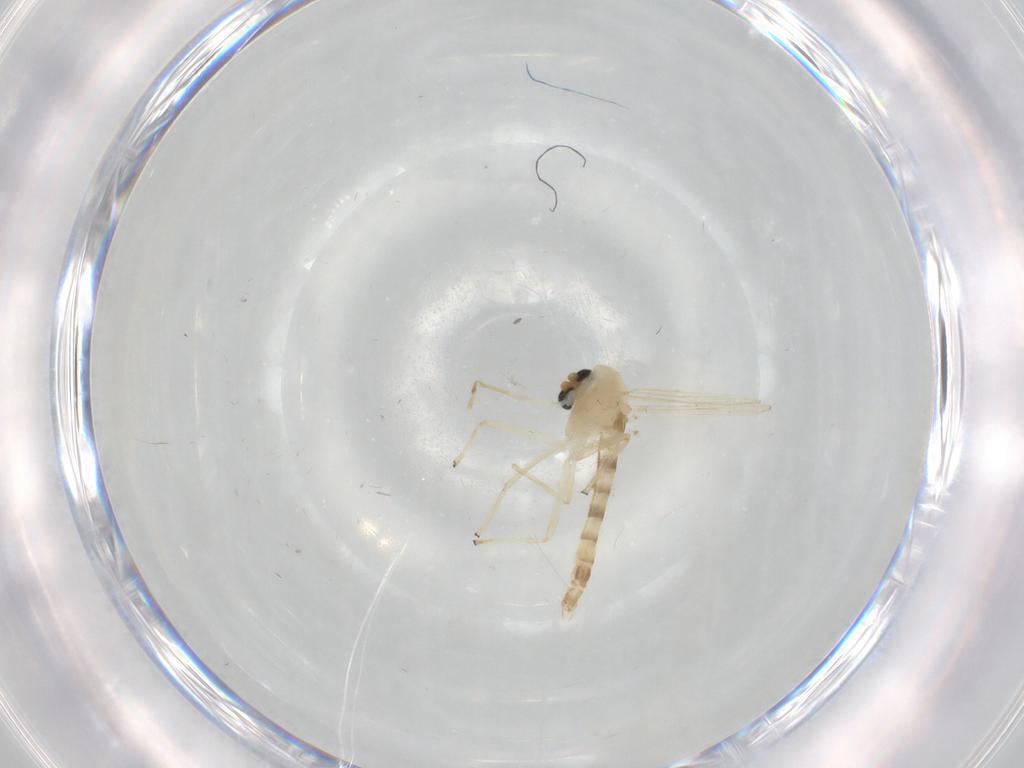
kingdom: Animalia
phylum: Arthropoda
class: Insecta
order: Diptera
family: Chironomidae
